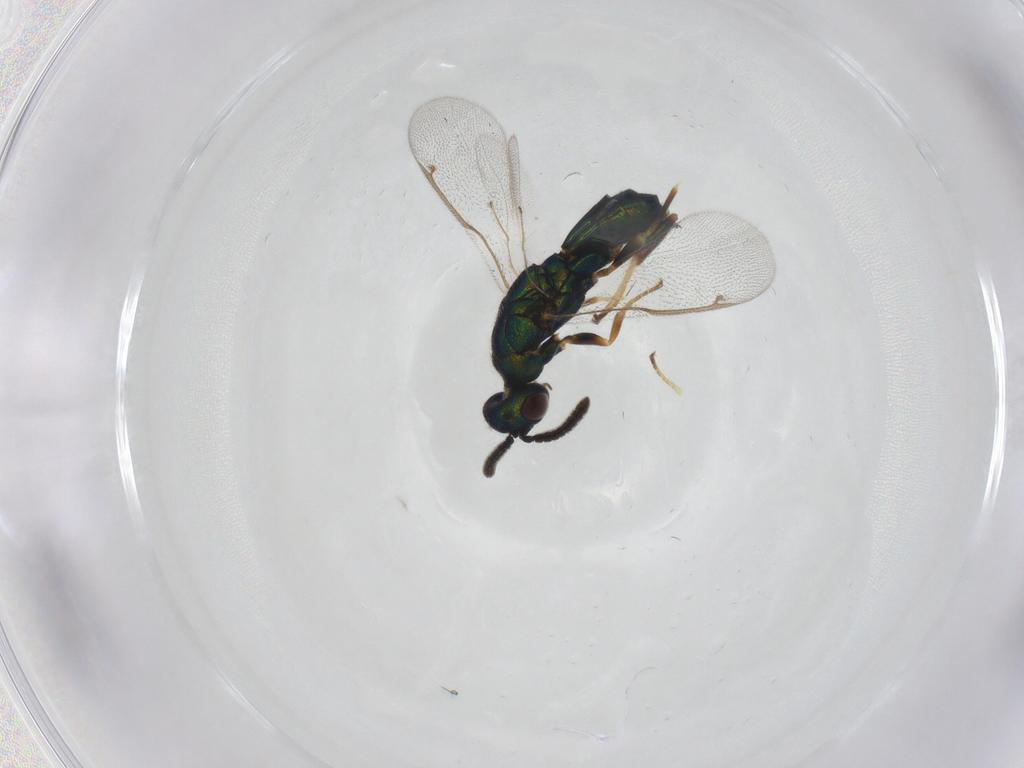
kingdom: Animalia
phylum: Arthropoda
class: Insecta
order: Hymenoptera
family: Torymidae
